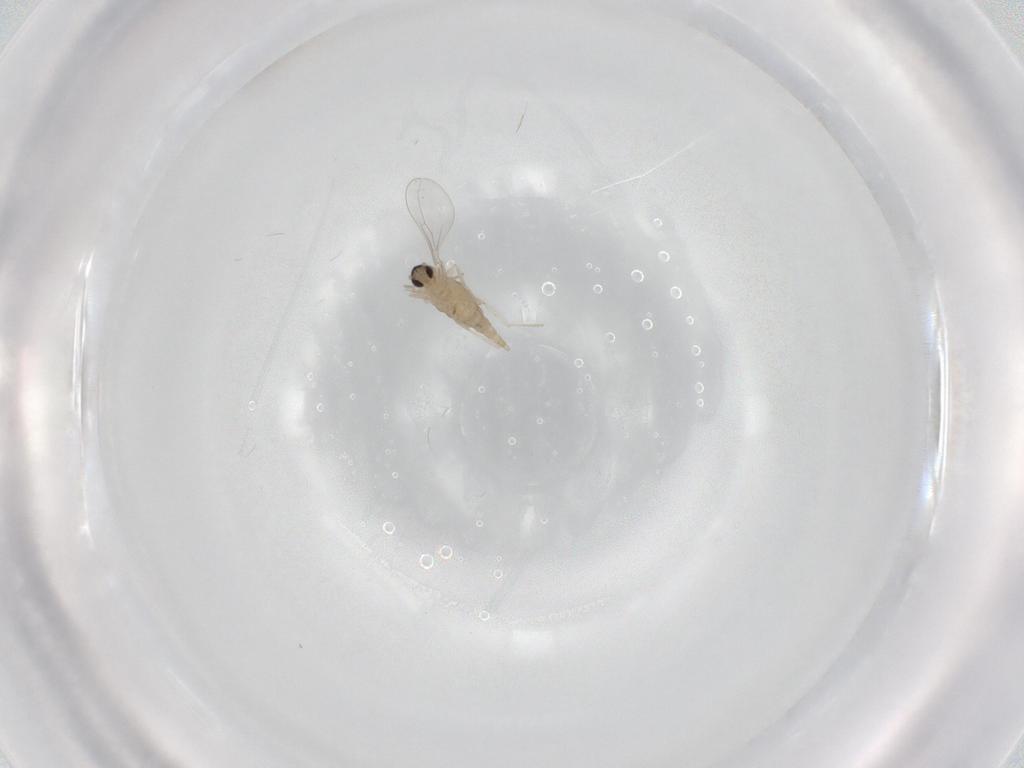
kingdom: Animalia
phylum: Arthropoda
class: Insecta
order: Diptera
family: Cecidomyiidae
